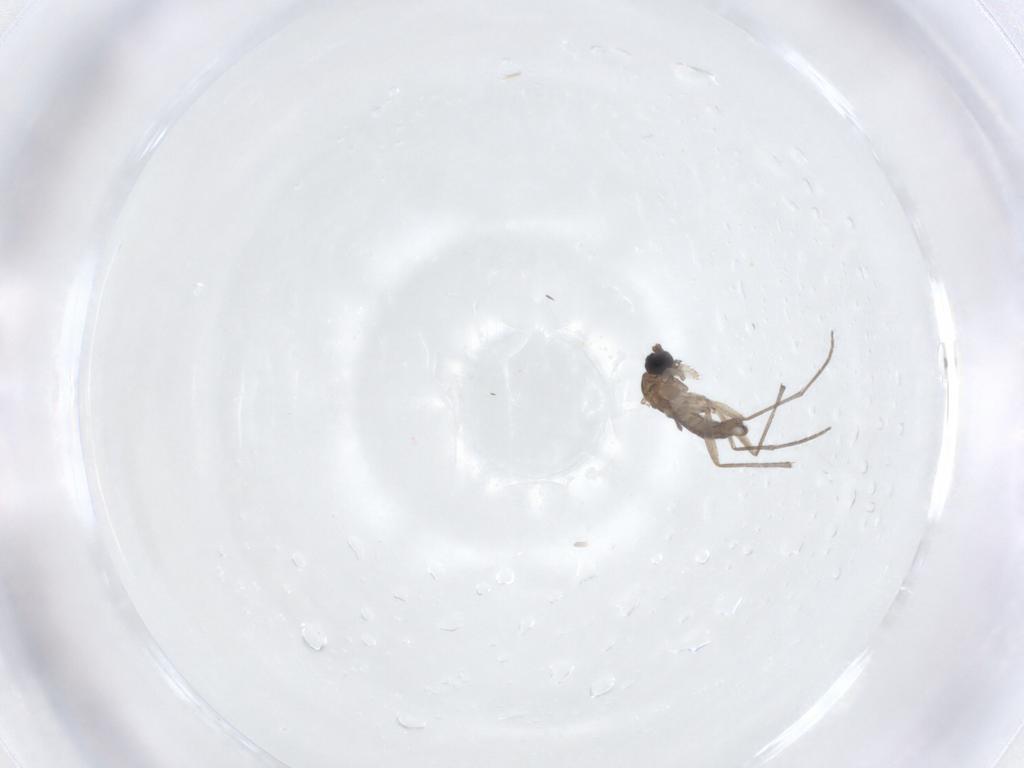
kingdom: Animalia
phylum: Arthropoda
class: Insecta
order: Diptera
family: Sciaridae
